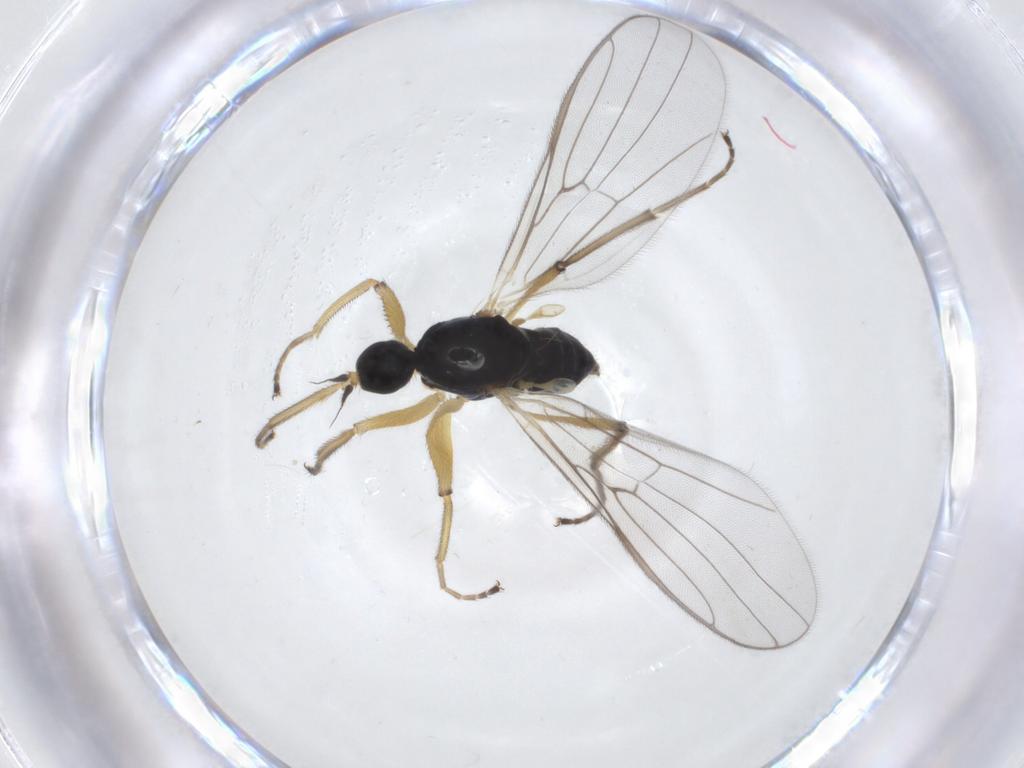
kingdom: Animalia
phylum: Arthropoda
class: Insecta
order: Diptera
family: Hybotidae
